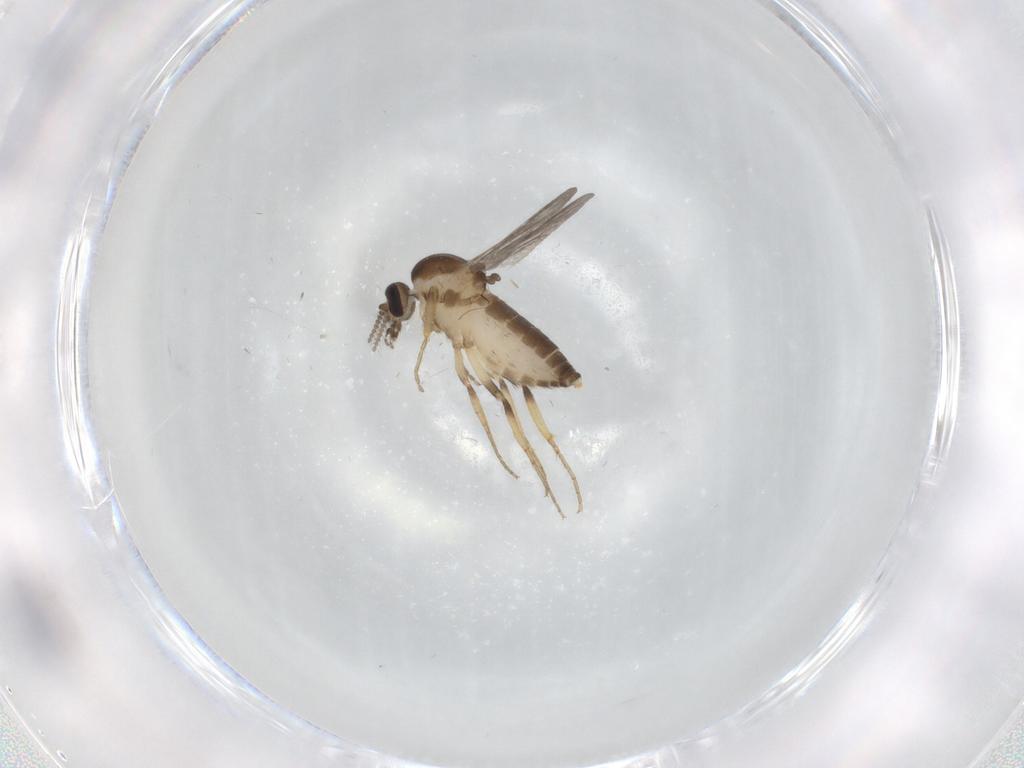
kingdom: Animalia
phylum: Arthropoda
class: Insecta
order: Diptera
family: Ceratopogonidae
